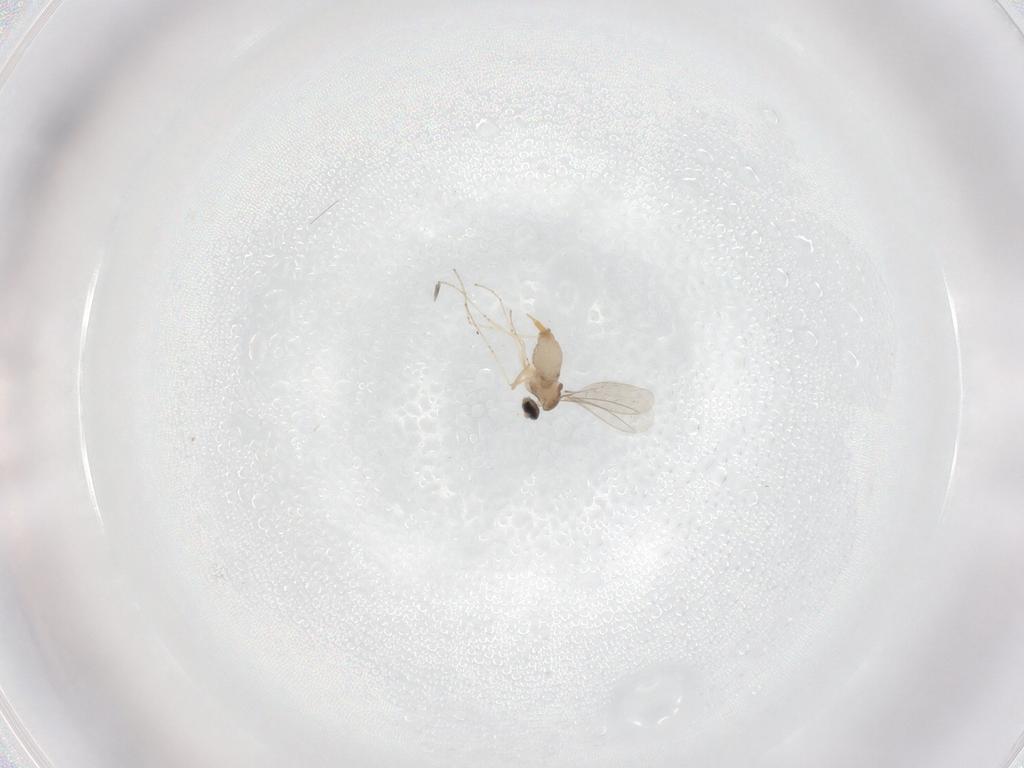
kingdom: Animalia
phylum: Arthropoda
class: Insecta
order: Diptera
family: Cecidomyiidae
